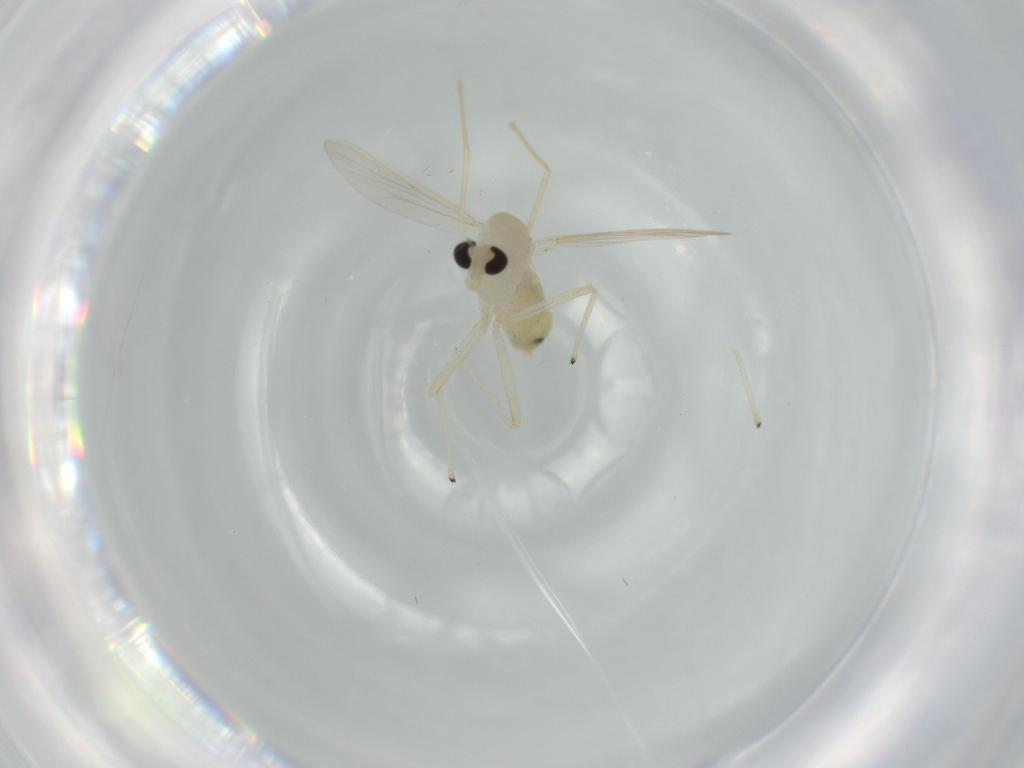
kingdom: Animalia
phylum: Arthropoda
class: Insecta
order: Diptera
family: Chironomidae
